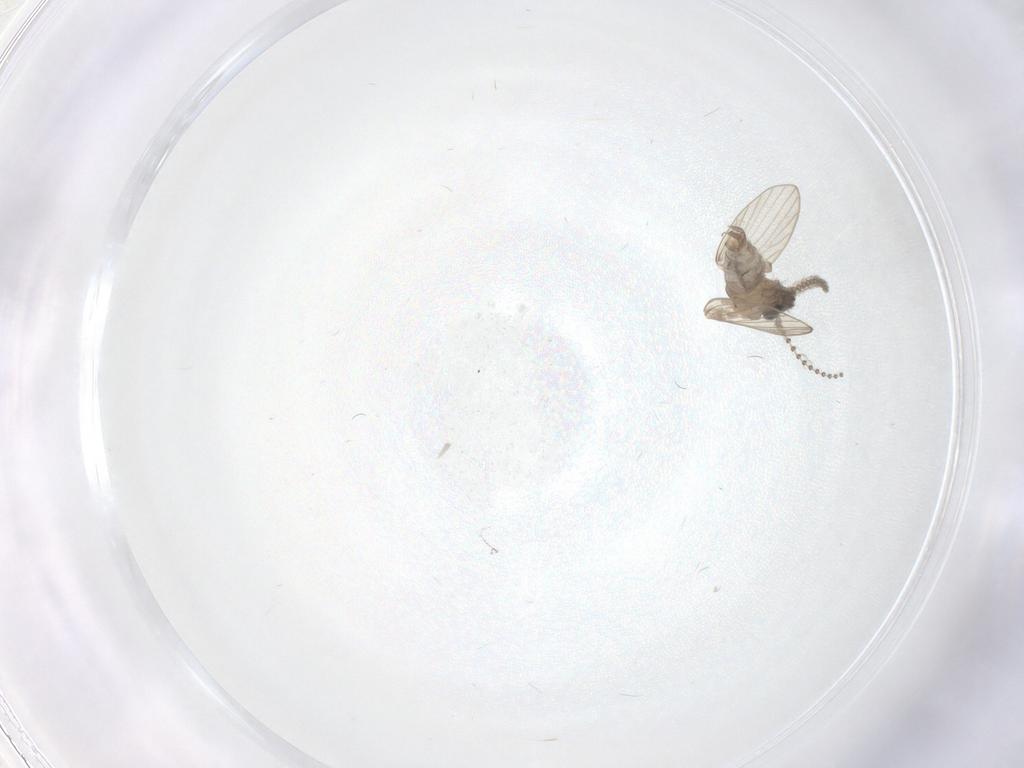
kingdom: Animalia
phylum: Arthropoda
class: Insecta
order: Diptera
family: Psychodidae
